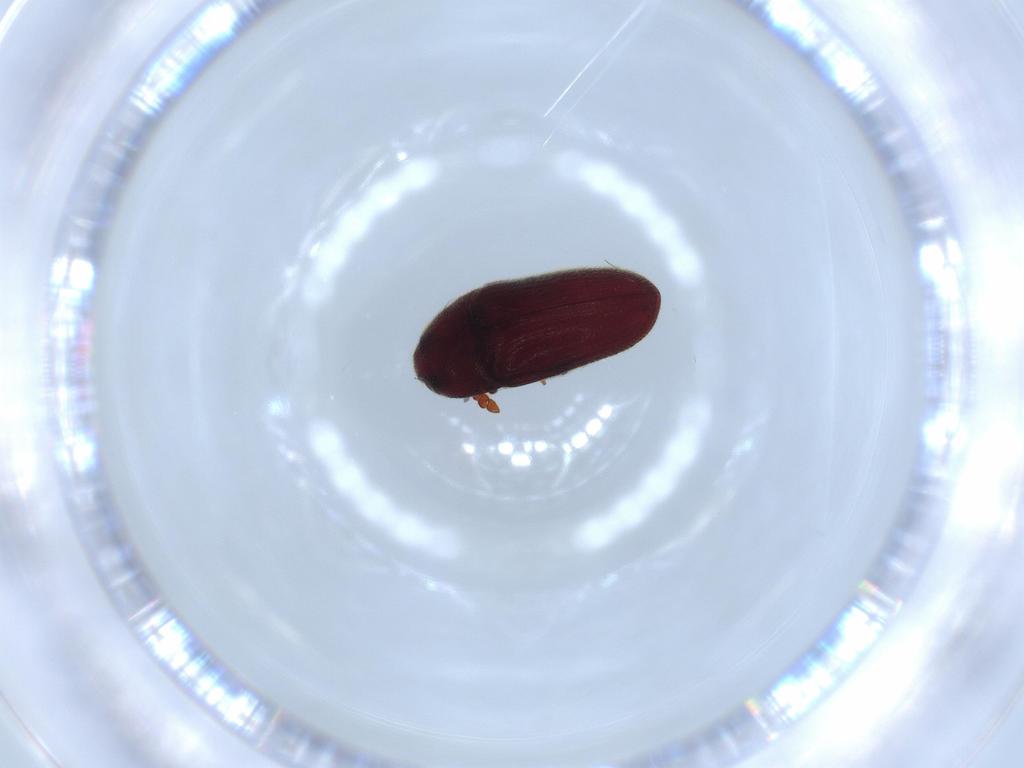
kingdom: Animalia
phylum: Arthropoda
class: Insecta
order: Coleoptera
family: Throscidae
